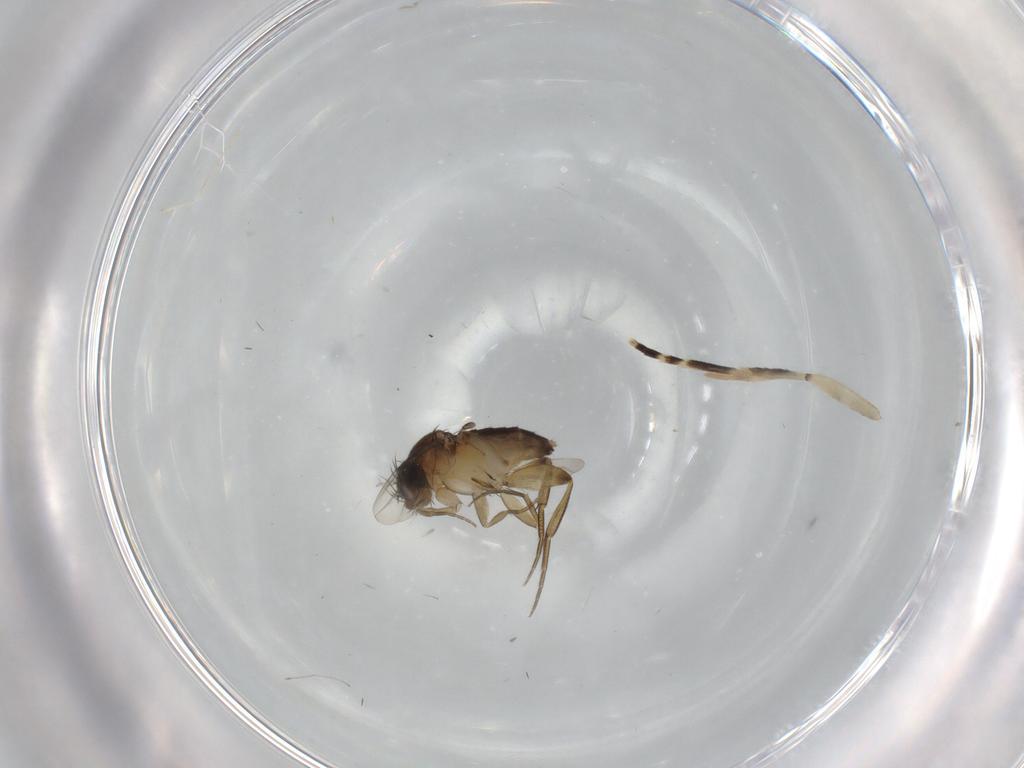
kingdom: Animalia
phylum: Arthropoda
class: Insecta
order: Diptera
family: Phoridae
